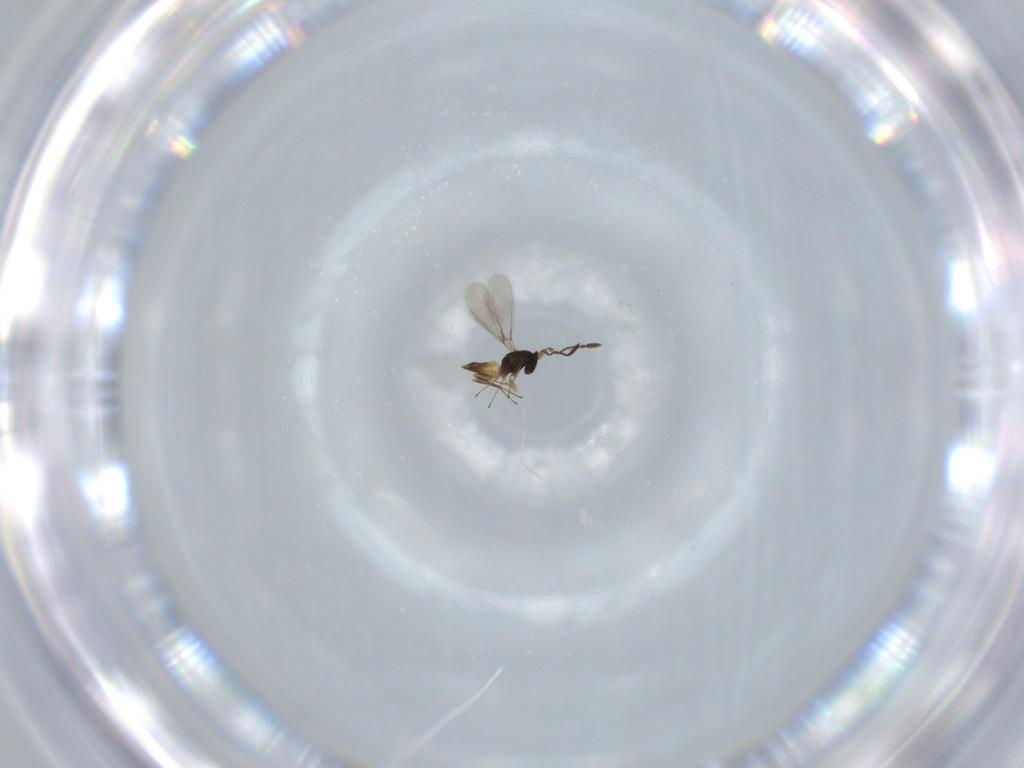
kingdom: Animalia
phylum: Arthropoda
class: Insecta
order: Hymenoptera
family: Mymaridae
